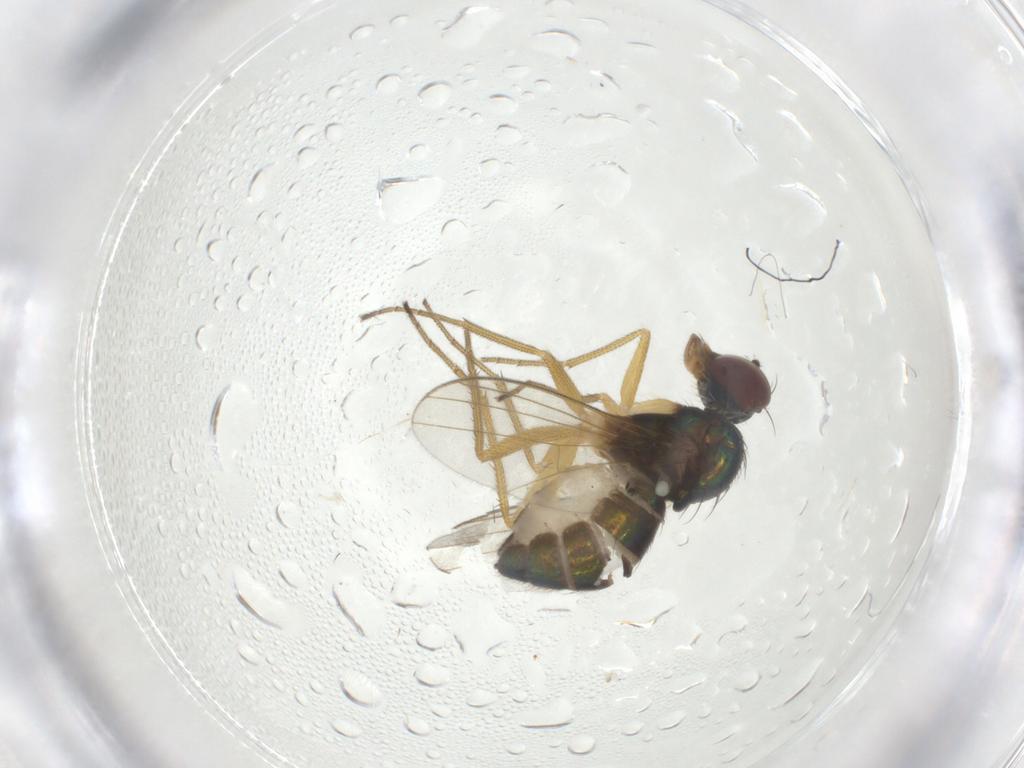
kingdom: Animalia
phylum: Arthropoda
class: Insecta
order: Diptera
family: Dolichopodidae
